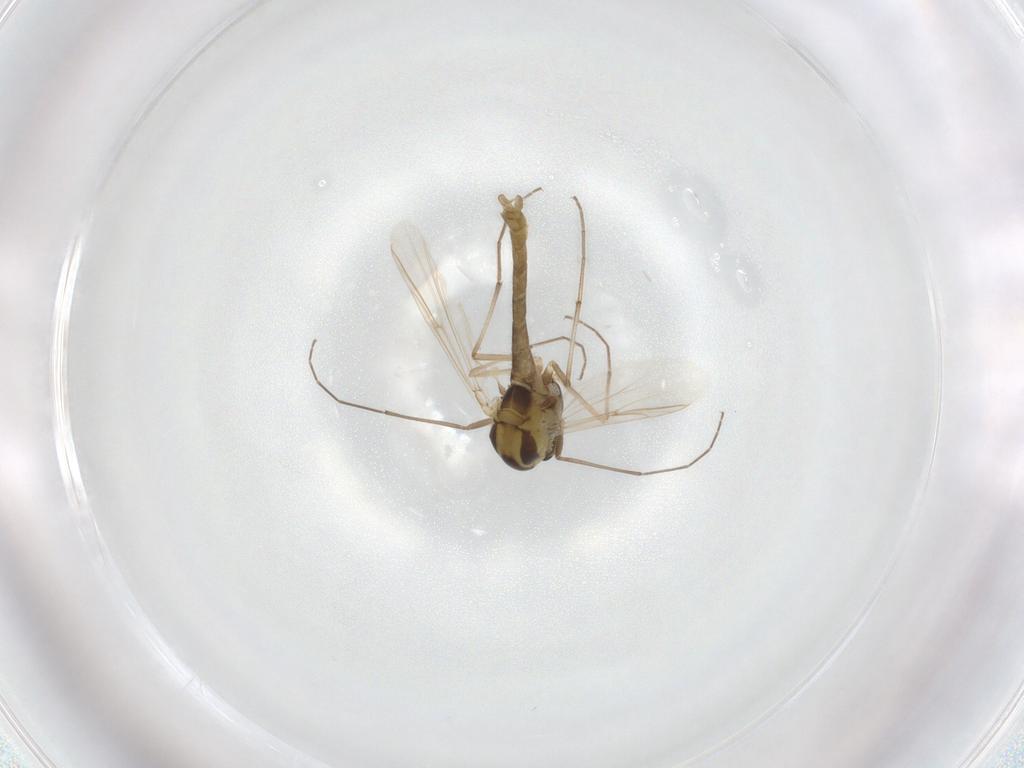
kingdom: Animalia
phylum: Arthropoda
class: Insecta
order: Diptera
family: Chironomidae
